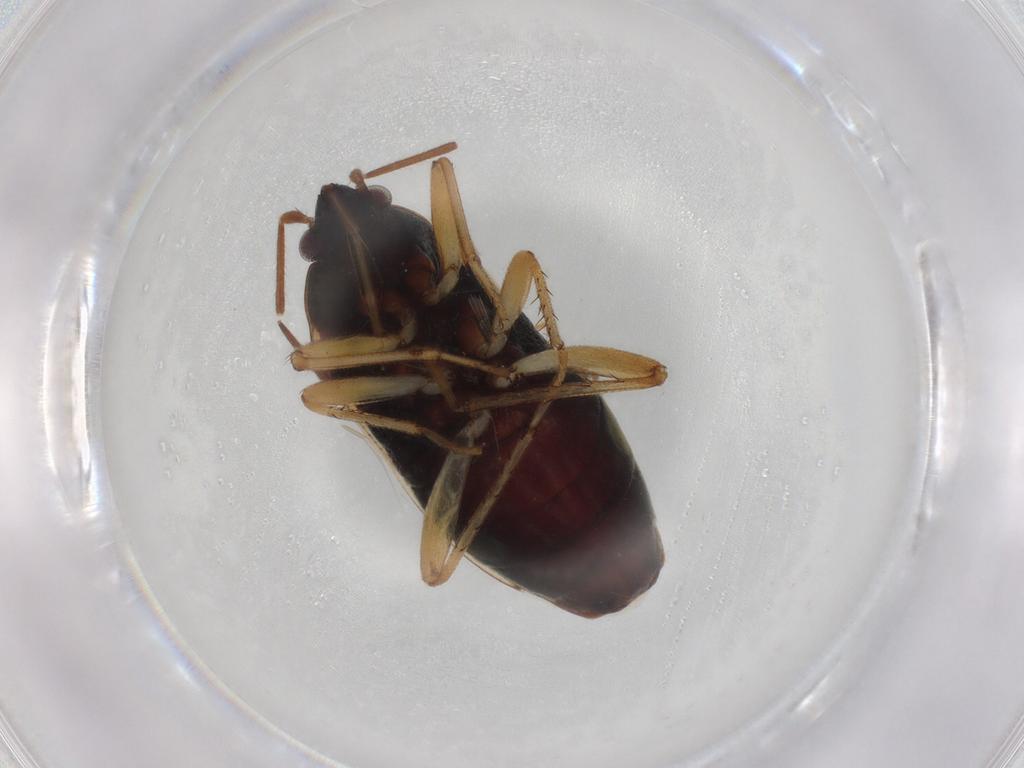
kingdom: Animalia
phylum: Arthropoda
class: Insecta
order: Hemiptera
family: Rhyparochromidae
